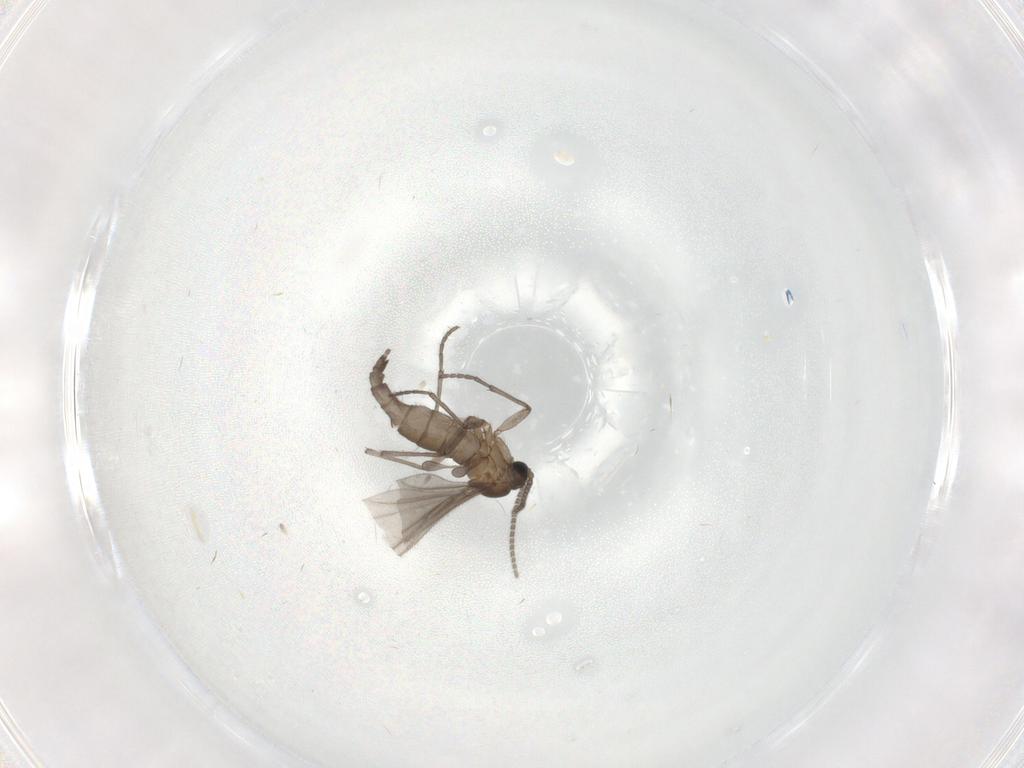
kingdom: Animalia
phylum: Arthropoda
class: Insecta
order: Diptera
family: Sciaridae
